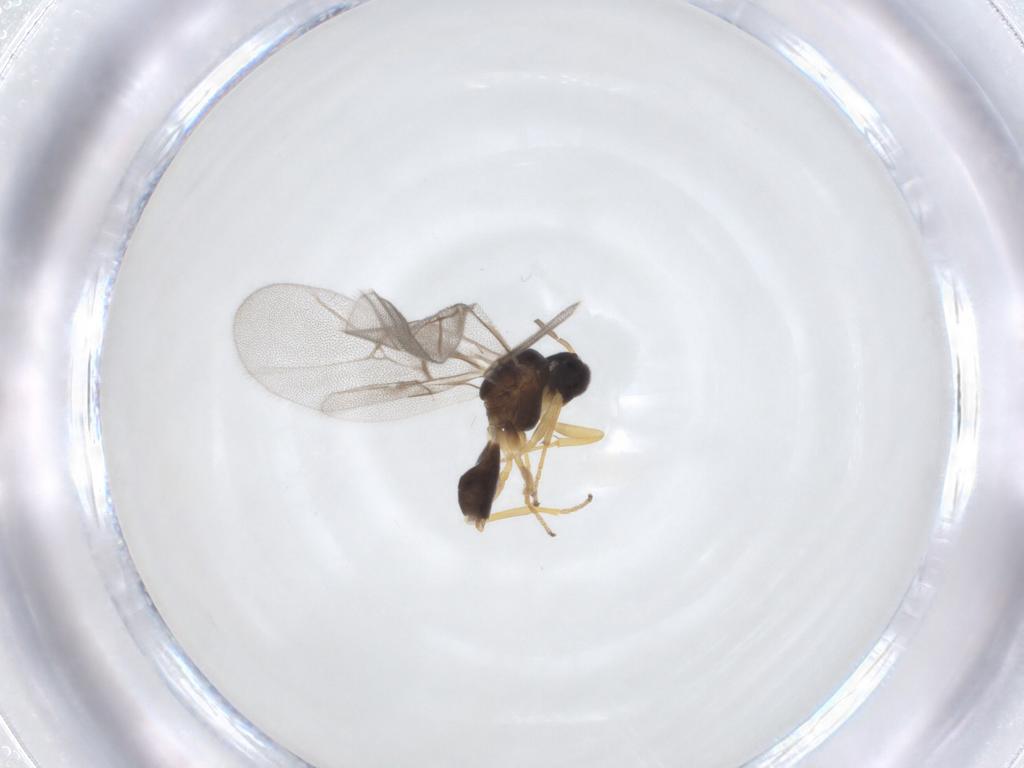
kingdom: Animalia
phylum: Arthropoda
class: Insecta
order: Hymenoptera
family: Cynipidae
